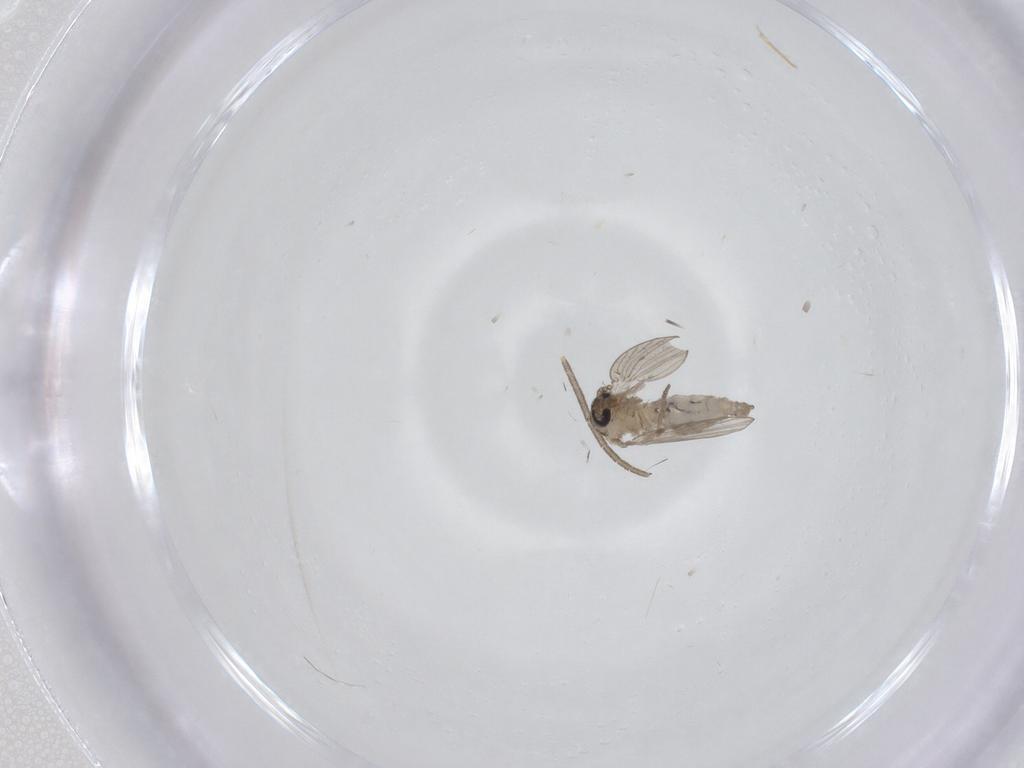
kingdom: Animalia
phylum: Arthropoda
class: Insecta
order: Diptera
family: Psychodidae
